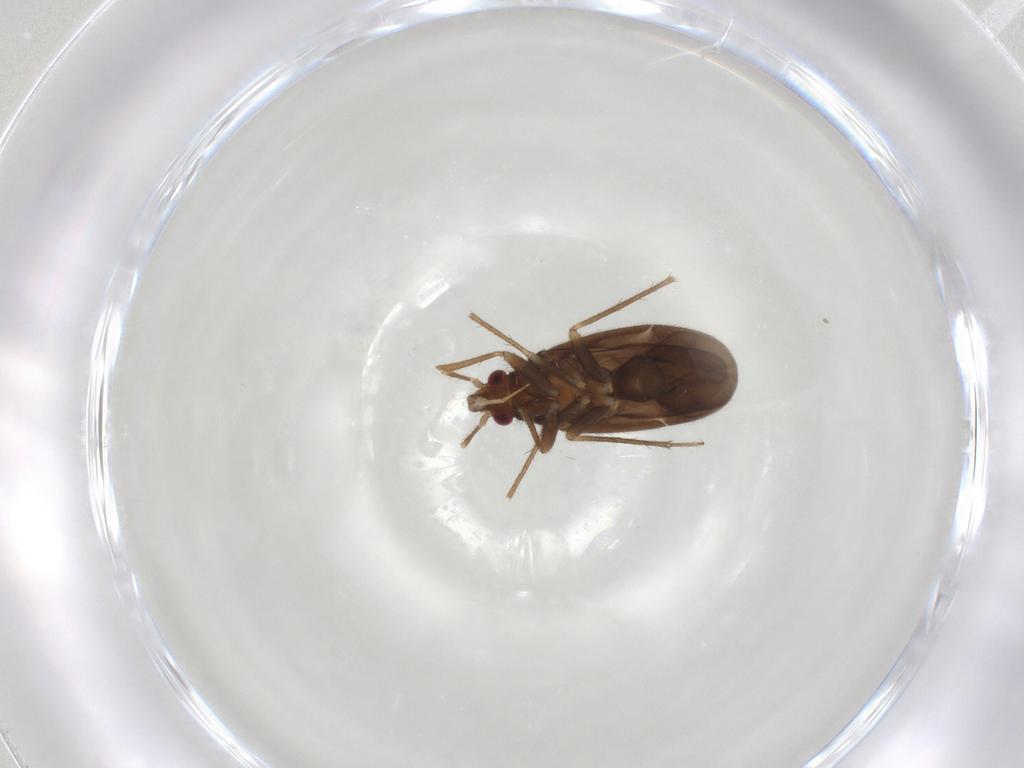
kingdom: Animalia
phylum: Arthropoda
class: Insecta
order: Hemiptera
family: Ceratocombidae
